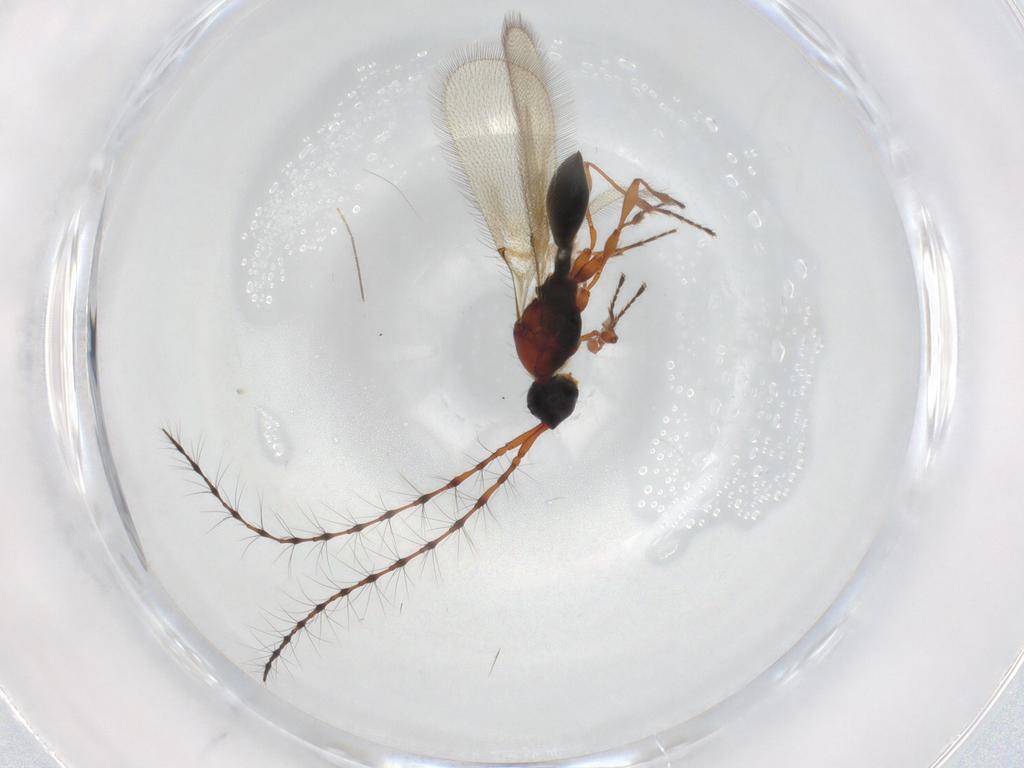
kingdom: Animalia
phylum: Arthropoda
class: Insecta
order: Hymenoptera
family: Platygastridae
